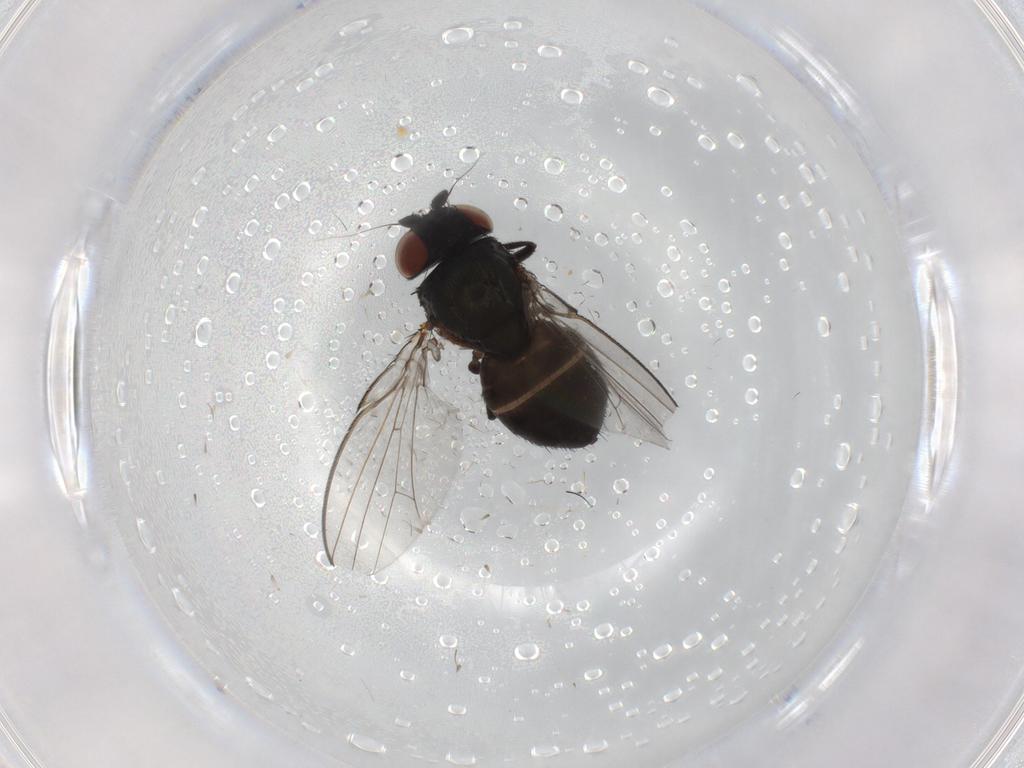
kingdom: Animalia
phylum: Arthropoda
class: Insecta
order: Diptera
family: Milichiidae
